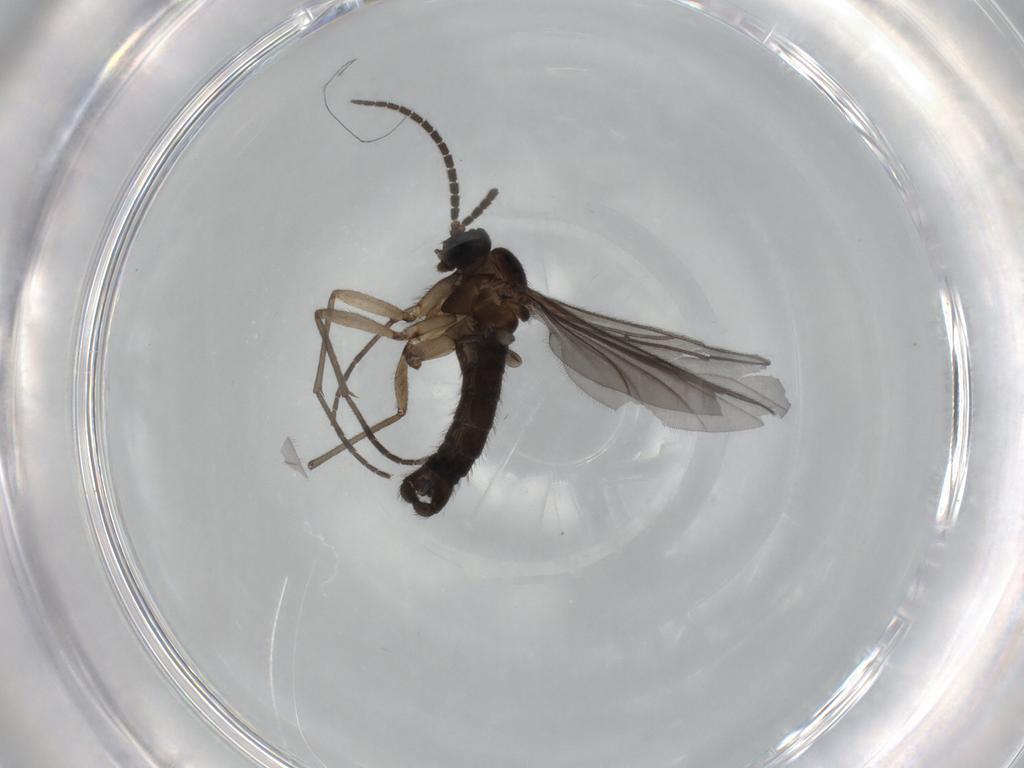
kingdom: Animalia
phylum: Arthropoda
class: Insecta
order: Diptera
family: Sciaridae
